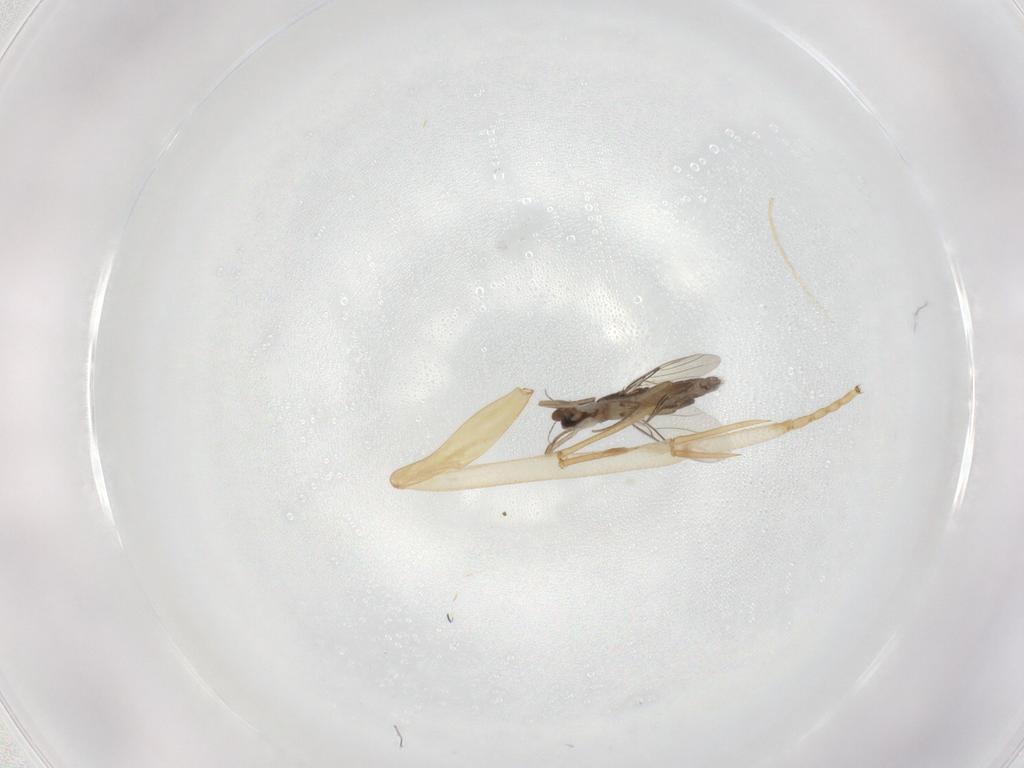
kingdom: Animalia
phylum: Arthropoda
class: Insecta
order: Diptera
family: Phoridae
